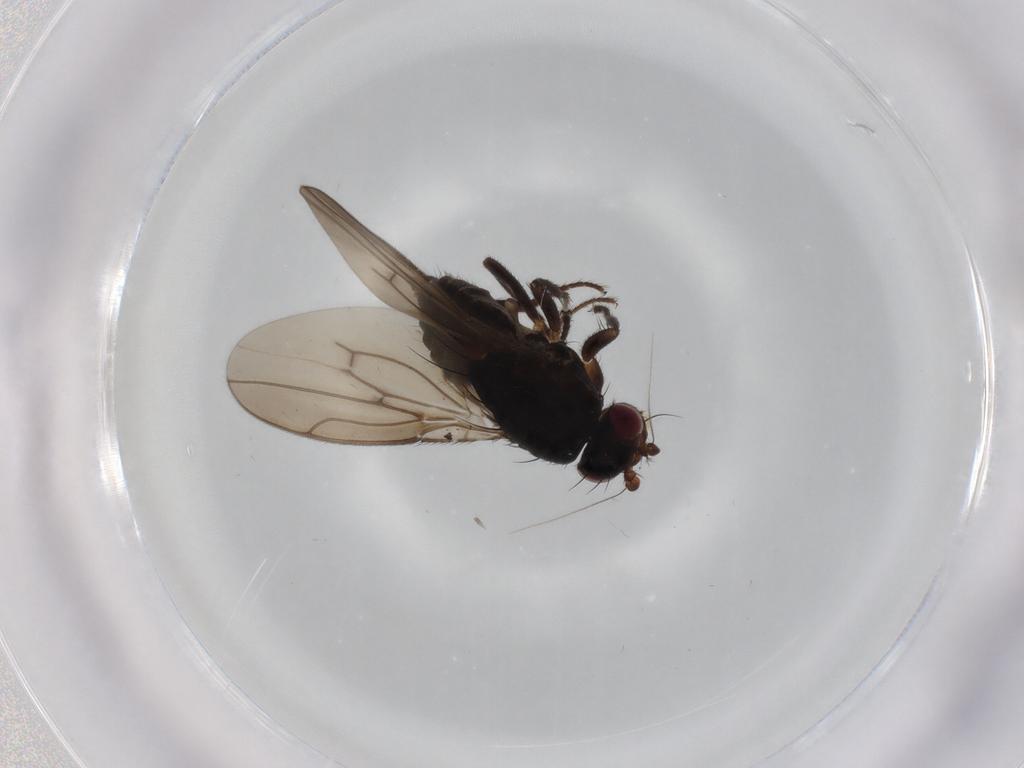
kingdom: Animalia
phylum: Arthropoda
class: Insecta
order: Diptera
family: Sphaeroceridae
